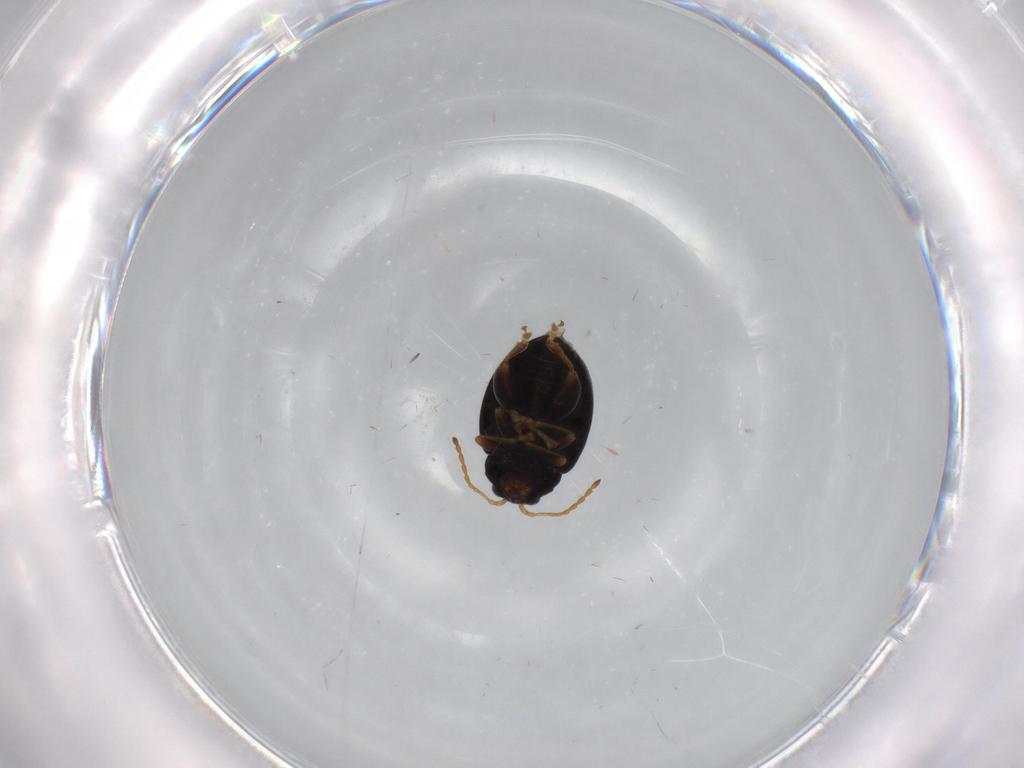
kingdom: Animalia
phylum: Arthropoda
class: Insecta
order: Coleoptera
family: Chrysomelidae
